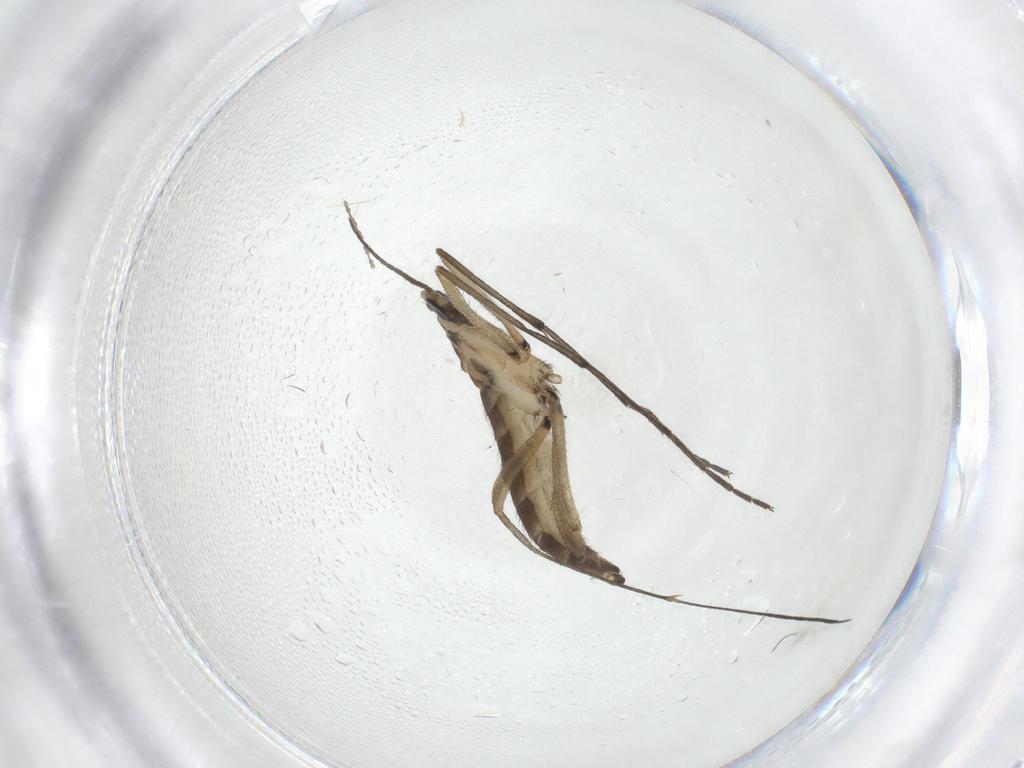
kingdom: Animalia
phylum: Arthropoda
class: Insecta
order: Diptera
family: Sciaridae
